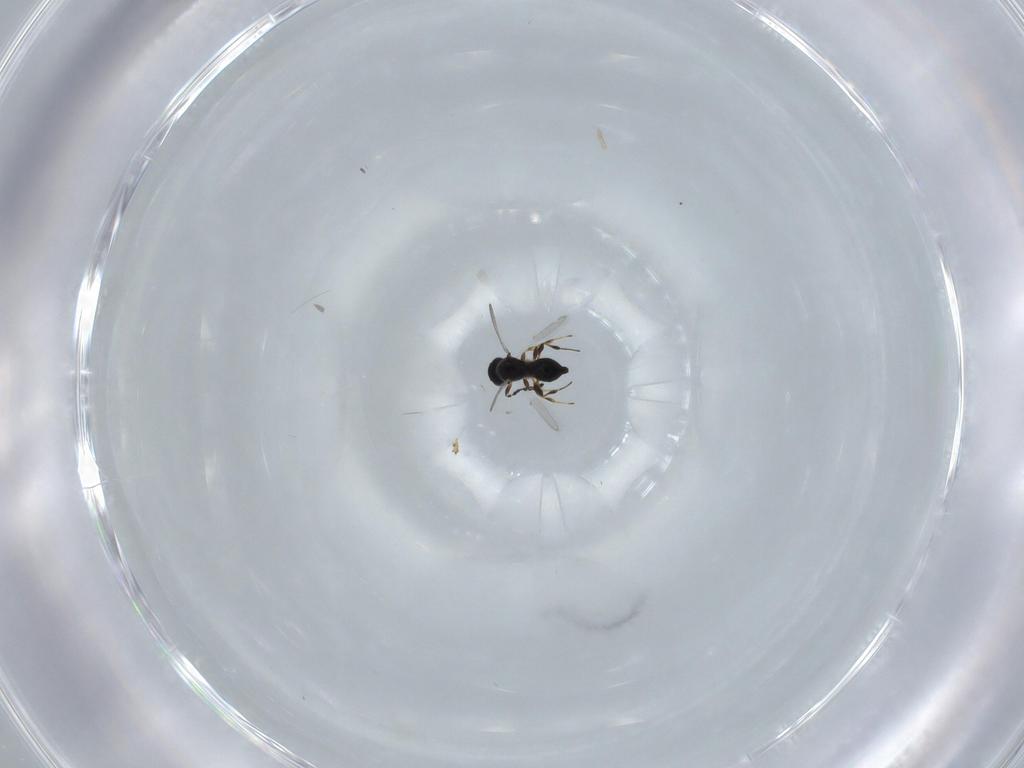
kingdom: Animalia
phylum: Arthropoda
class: Insecta
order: Hymenoptera
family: Platygastridae
